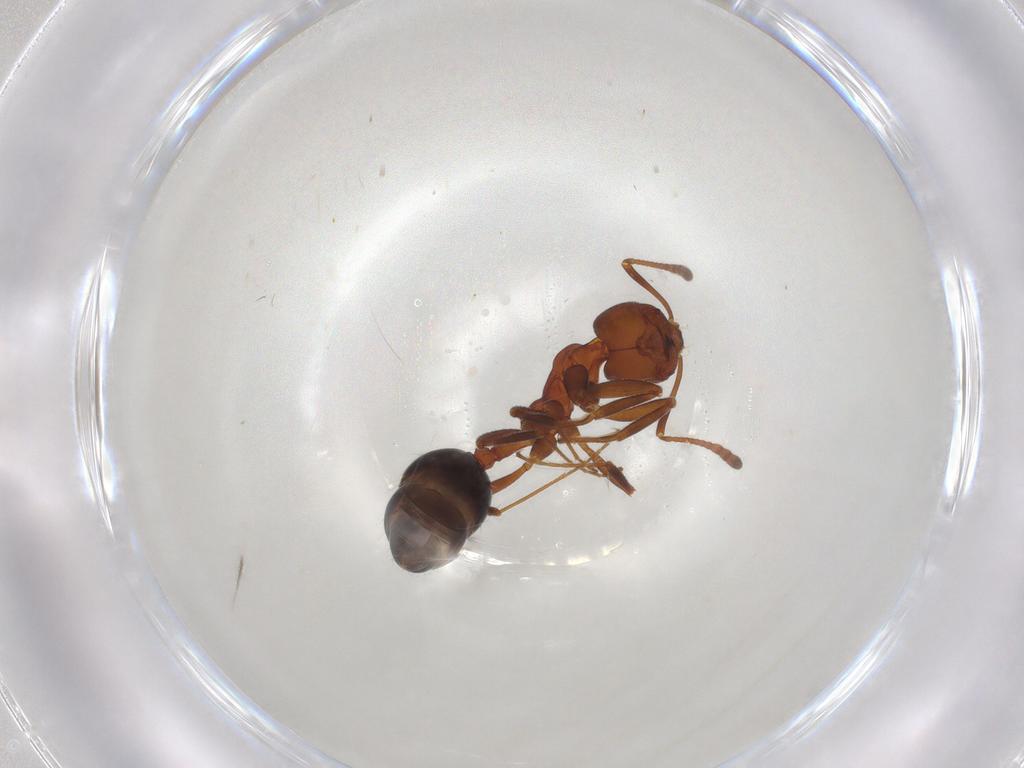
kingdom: Animalia
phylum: Arthropoda
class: Insecta
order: Hymenoptera
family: Formicidae
